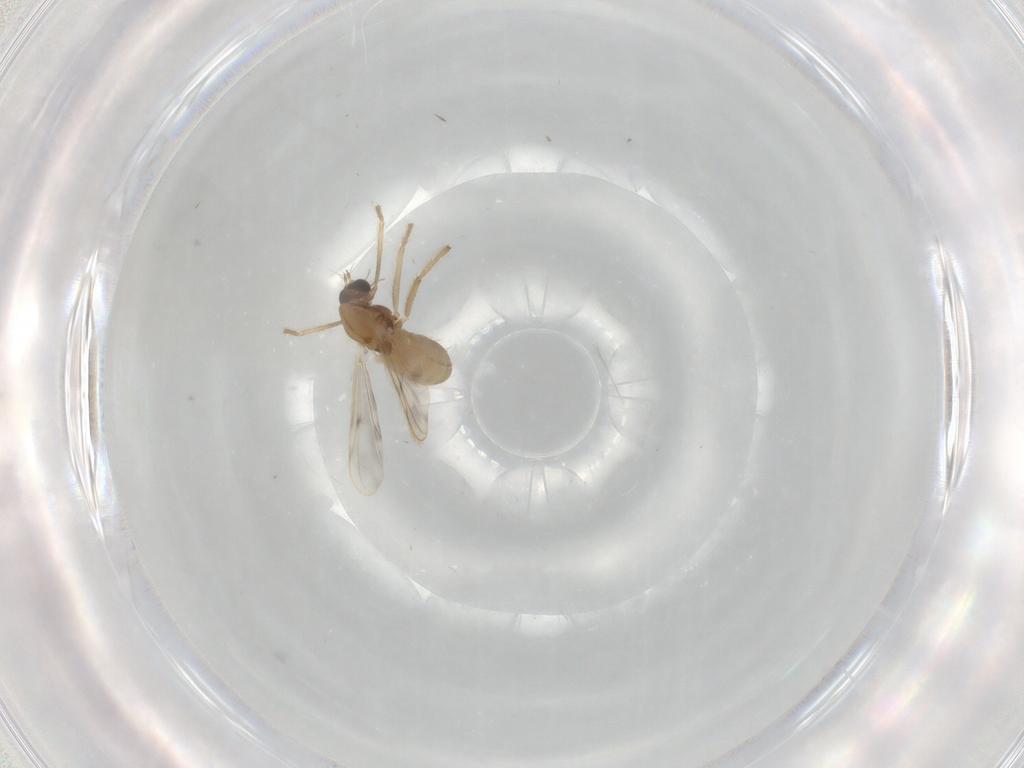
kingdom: Animalia
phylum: Arthropoda
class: Insecta
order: Diptera
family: Chironomidae
